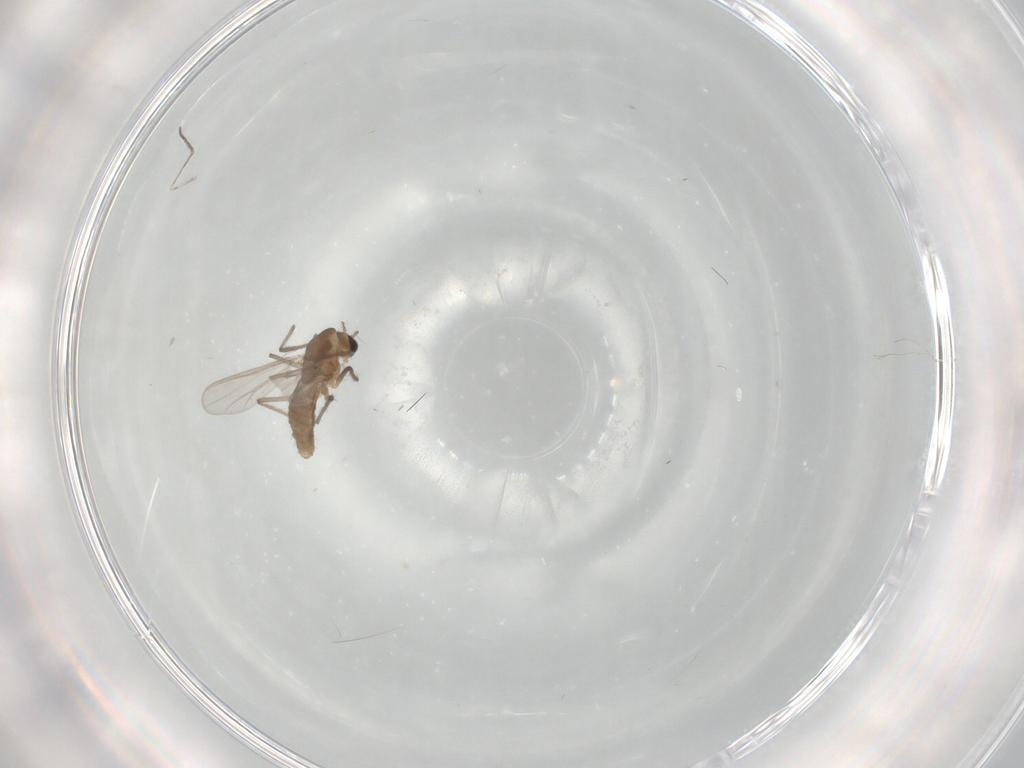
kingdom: Animalia
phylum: Arthropoda
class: Insecta
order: Diptera
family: Cecidomyiidae
